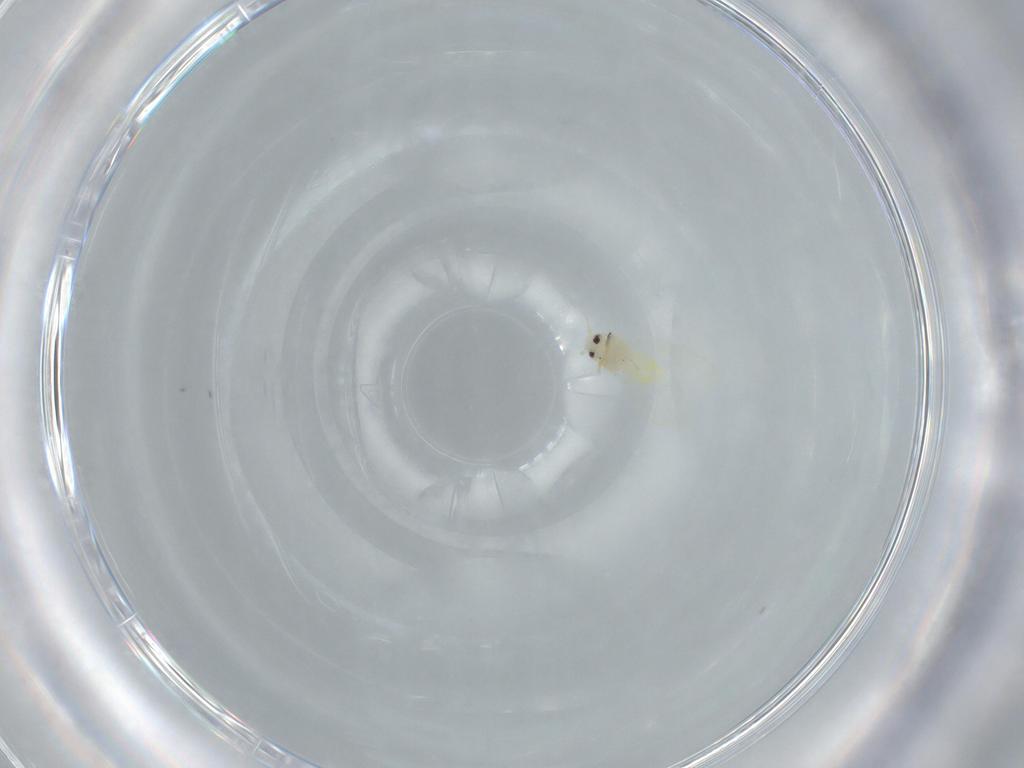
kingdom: Animalia
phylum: Arthropoda
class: Insecta
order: Hemiptera
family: Aleyrodidae
